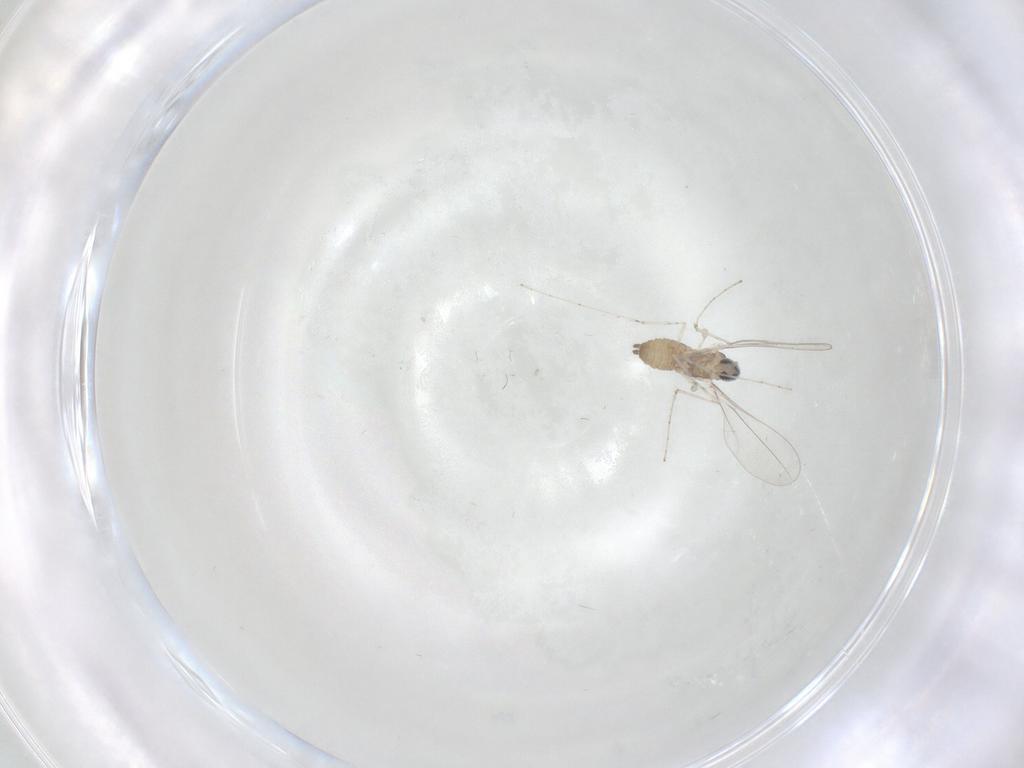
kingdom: Animalia
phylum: Arthropoda
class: Insecta
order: Diptera
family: Cecidomyiidae
